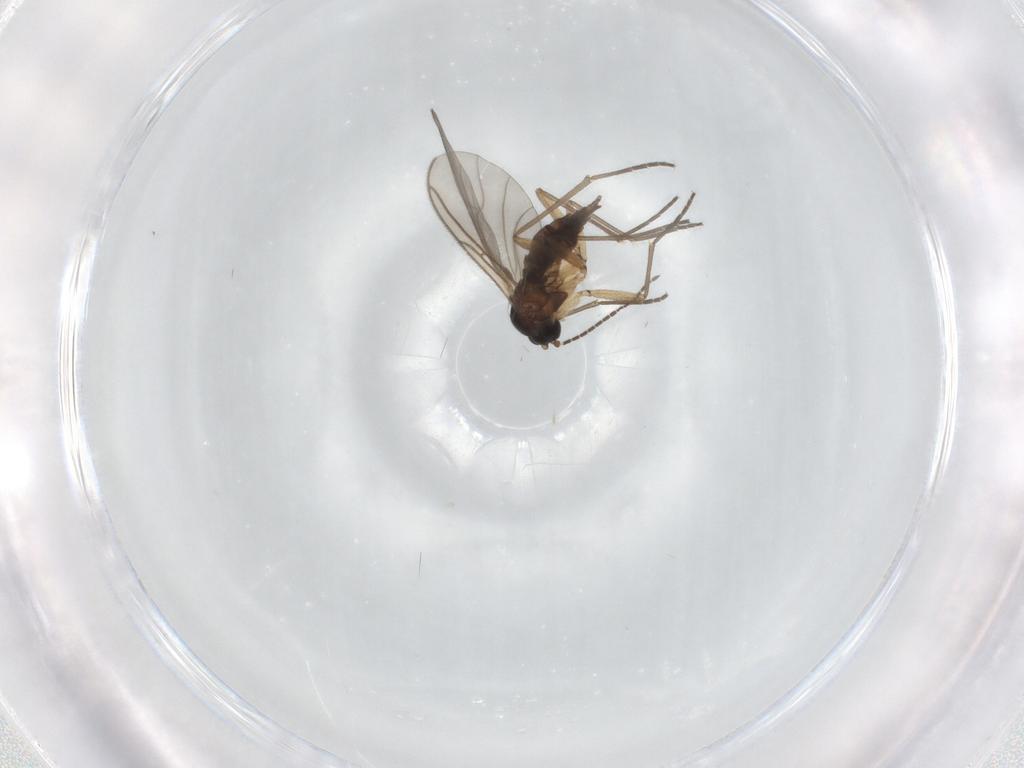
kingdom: Animalia
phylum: Arthropoda
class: Insecta
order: Diptera
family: Sciaridae
